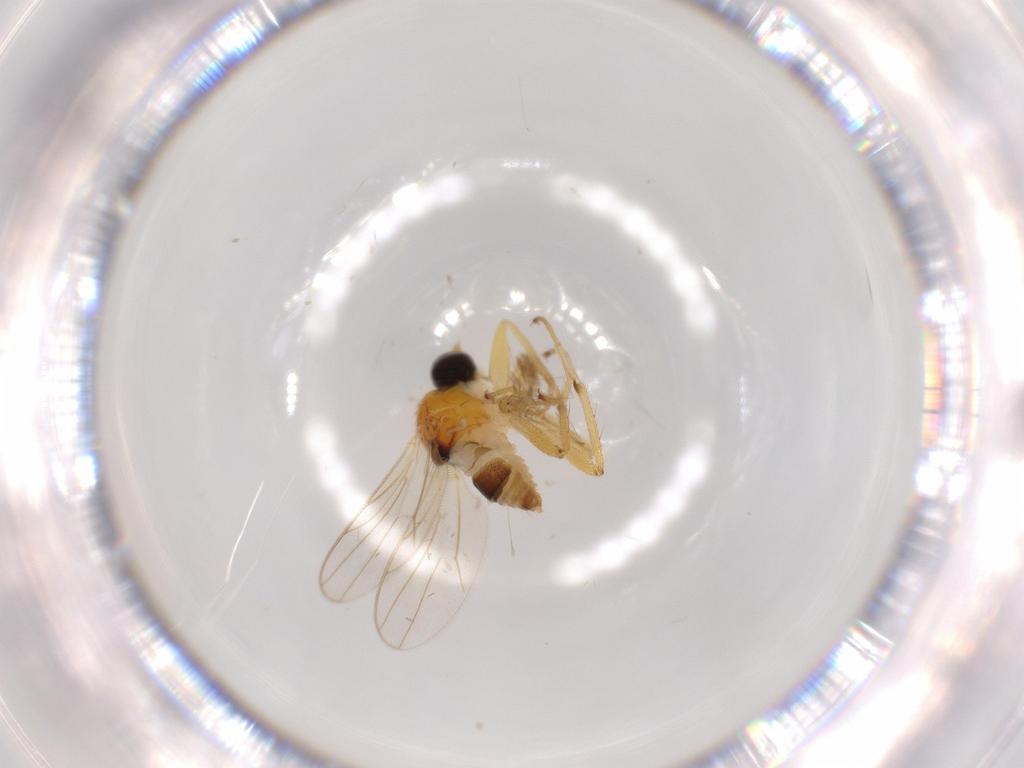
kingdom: Animalia
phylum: Arthropoda
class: Insecta
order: Diptera
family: Hybotidae
